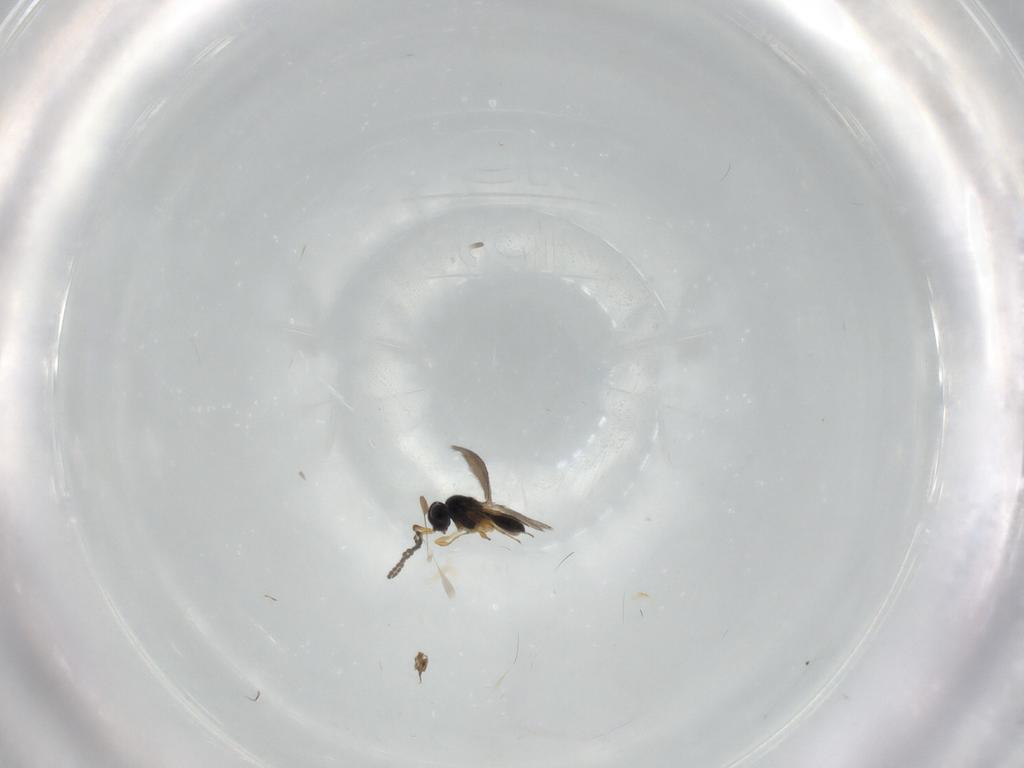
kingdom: Animalia
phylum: Arthropoda
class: Insecta
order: Hymenoptera
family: Scelionidae
